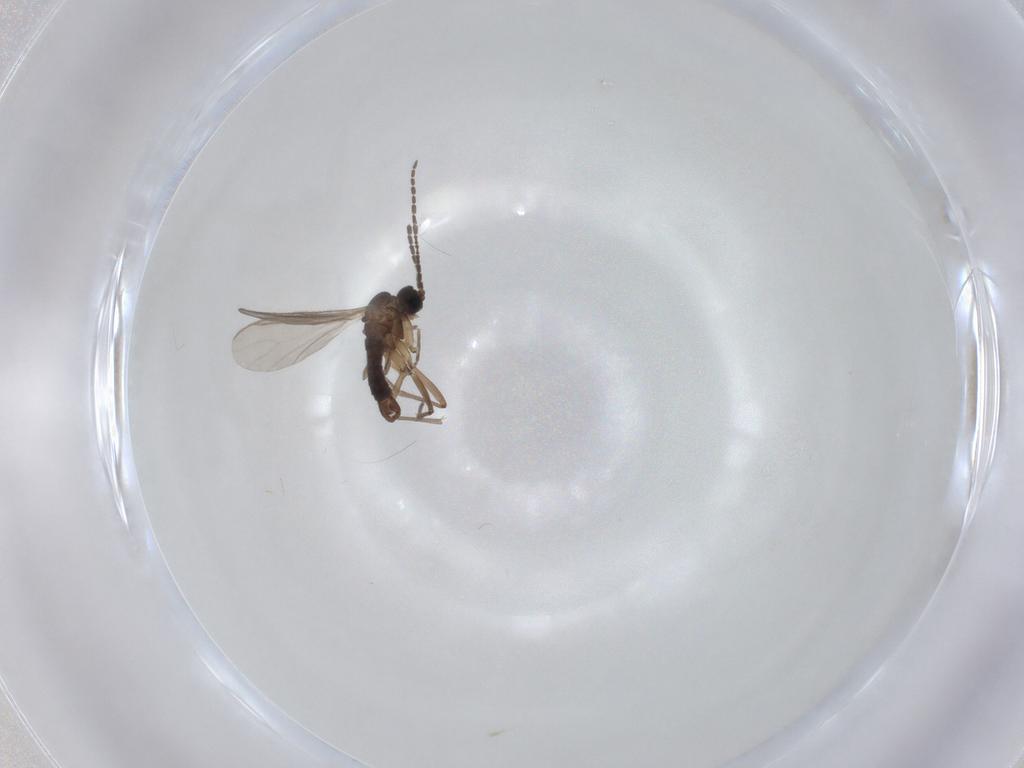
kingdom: Animalia
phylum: Arthropoda
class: Insecta
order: Diptera
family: Sciaridae
